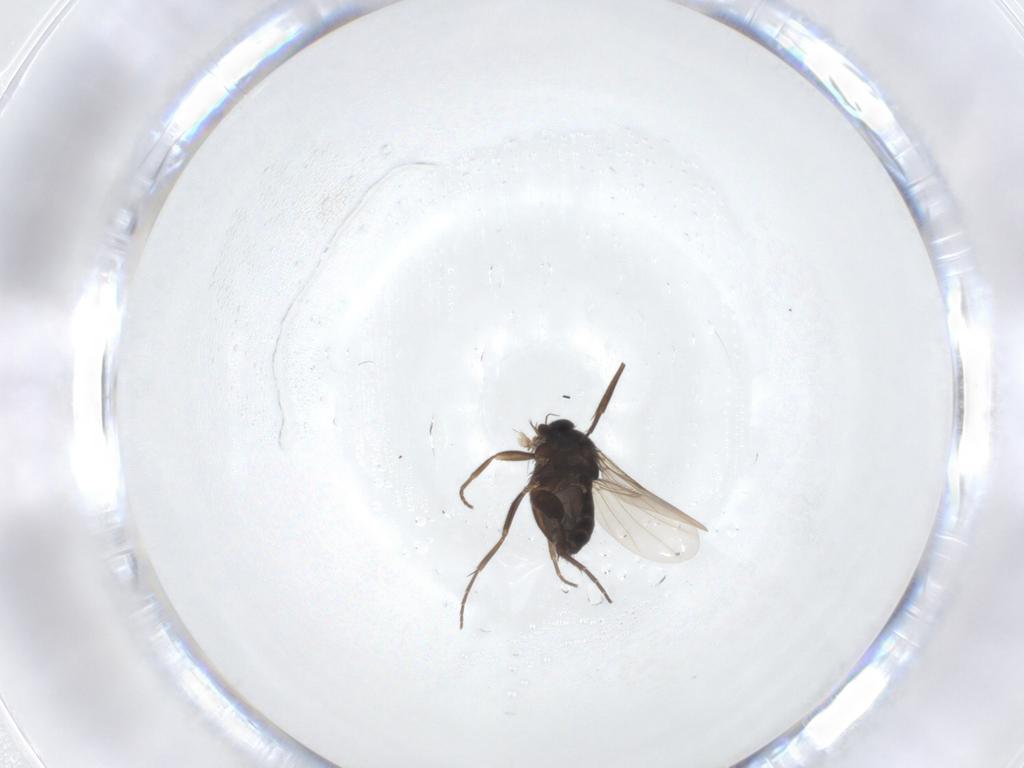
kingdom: Animalia
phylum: Arthropoda
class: Insecta
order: Diptera
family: Phoridae
